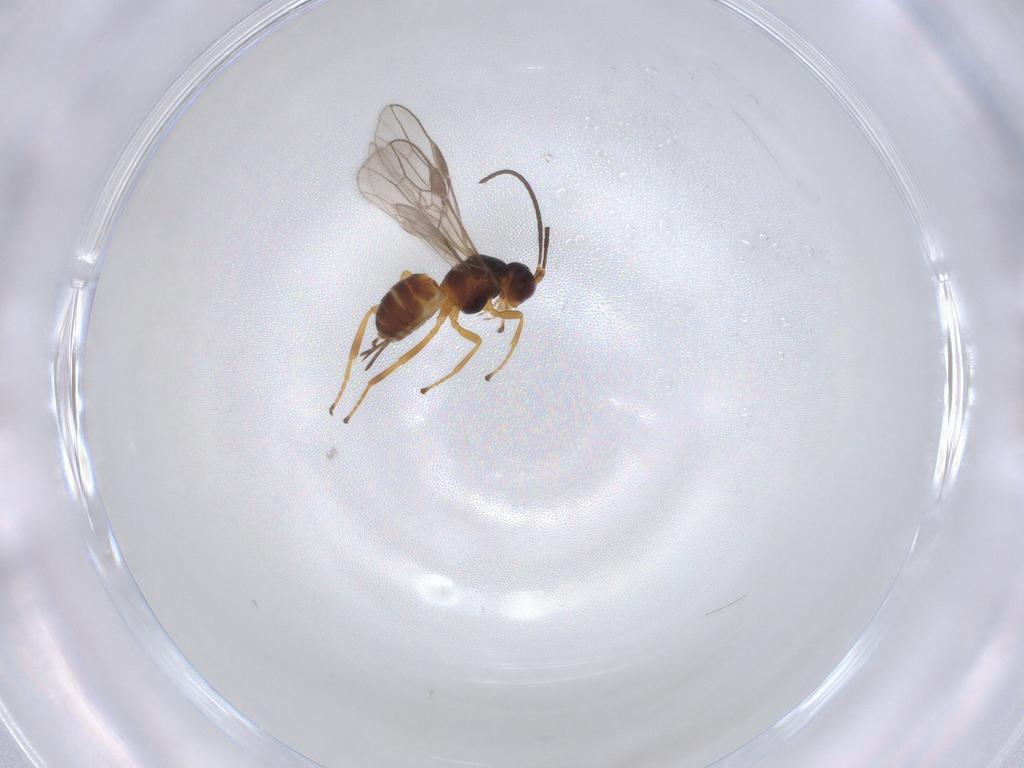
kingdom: Animalia
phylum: Arthropoda
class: Insecta
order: Hymenoptera
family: Braconidae
